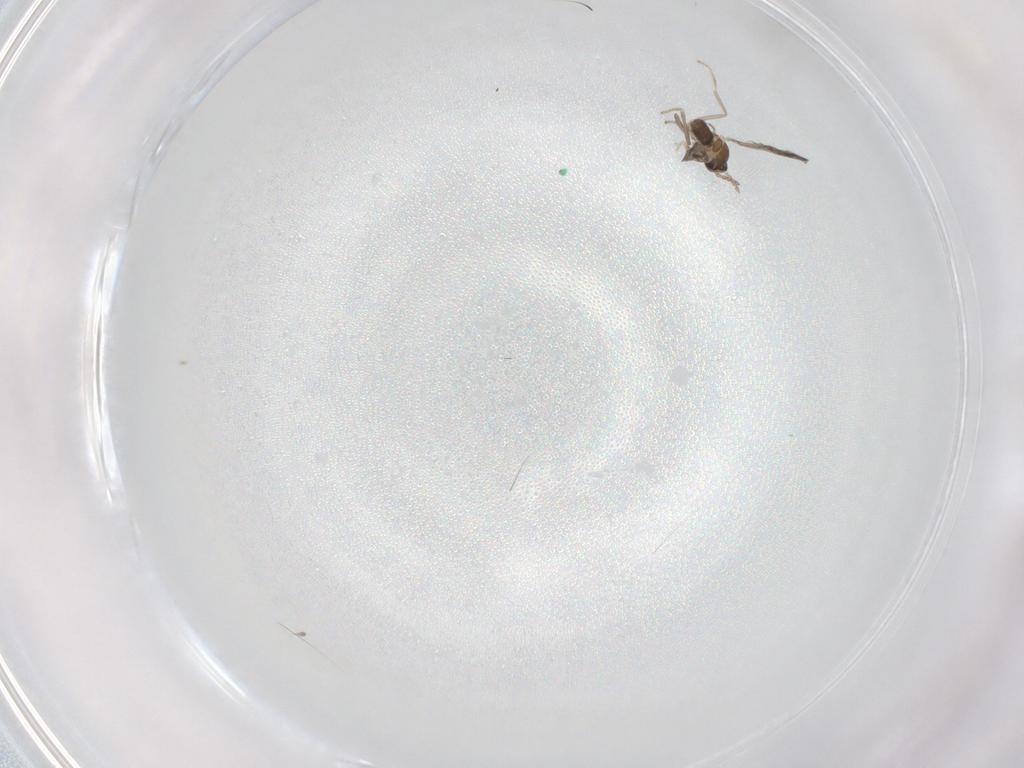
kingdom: Animalia
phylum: Arthropoda
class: Insecta
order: Diptera
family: Cecidomyiidae
